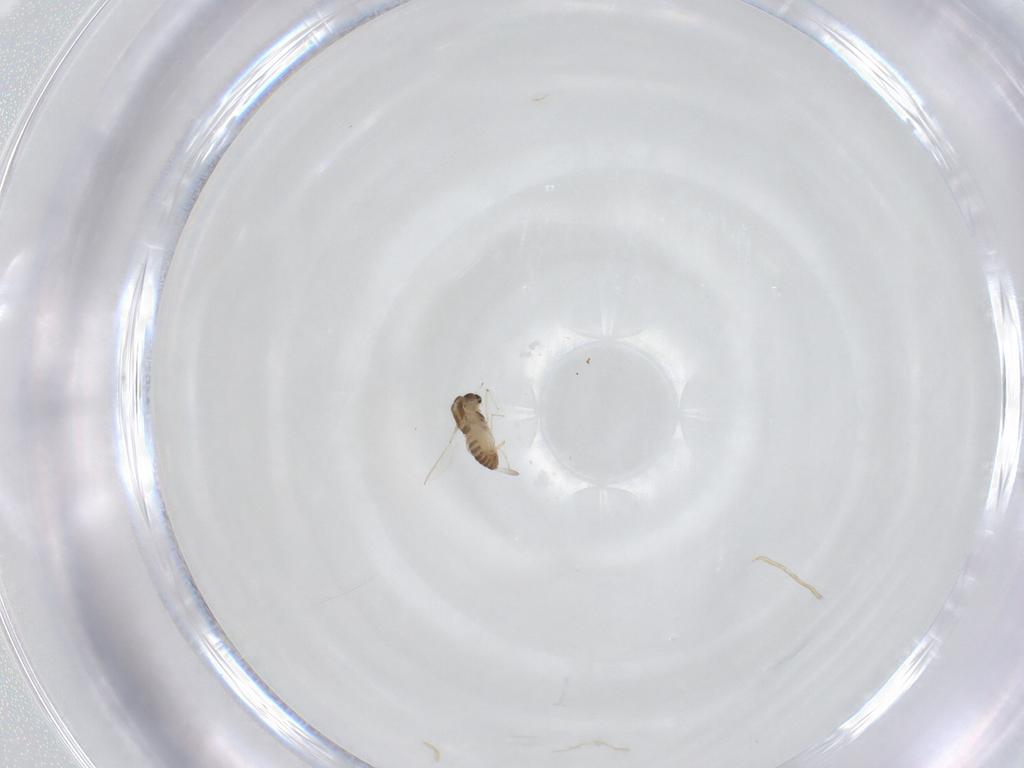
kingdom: Animalia
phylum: Arthropoda
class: Insecta
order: Diptera
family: Chironomidae
